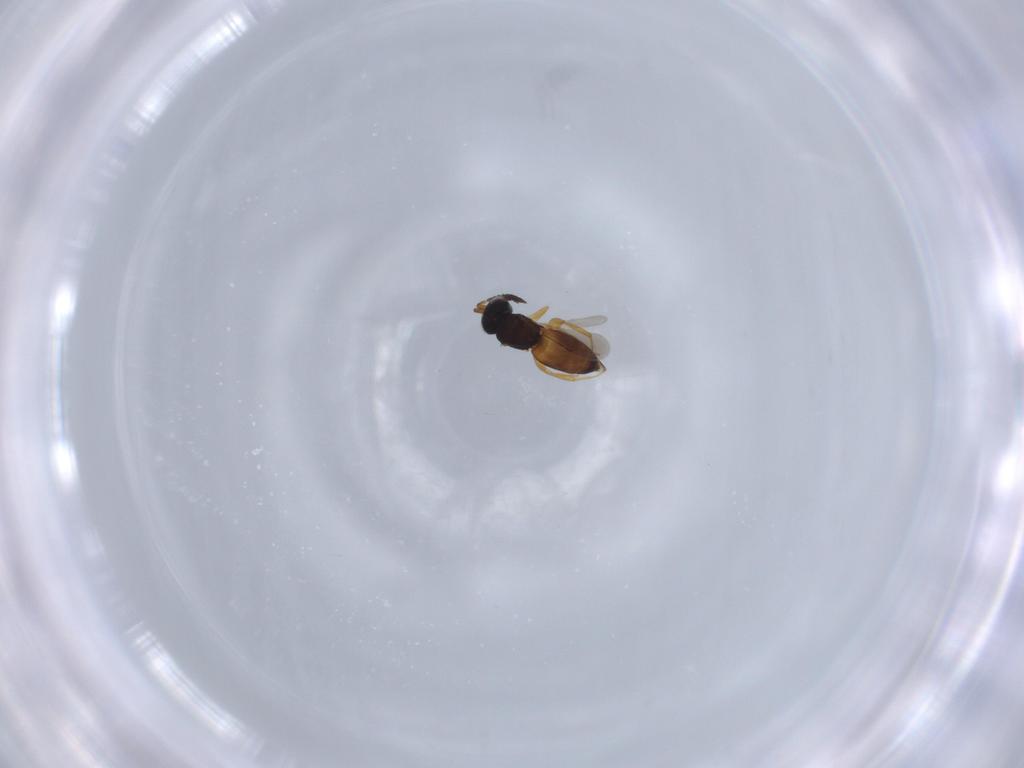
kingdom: Animalia
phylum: Arthropoda
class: Insecta
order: Hymenoptera
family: Ceraphronidae
